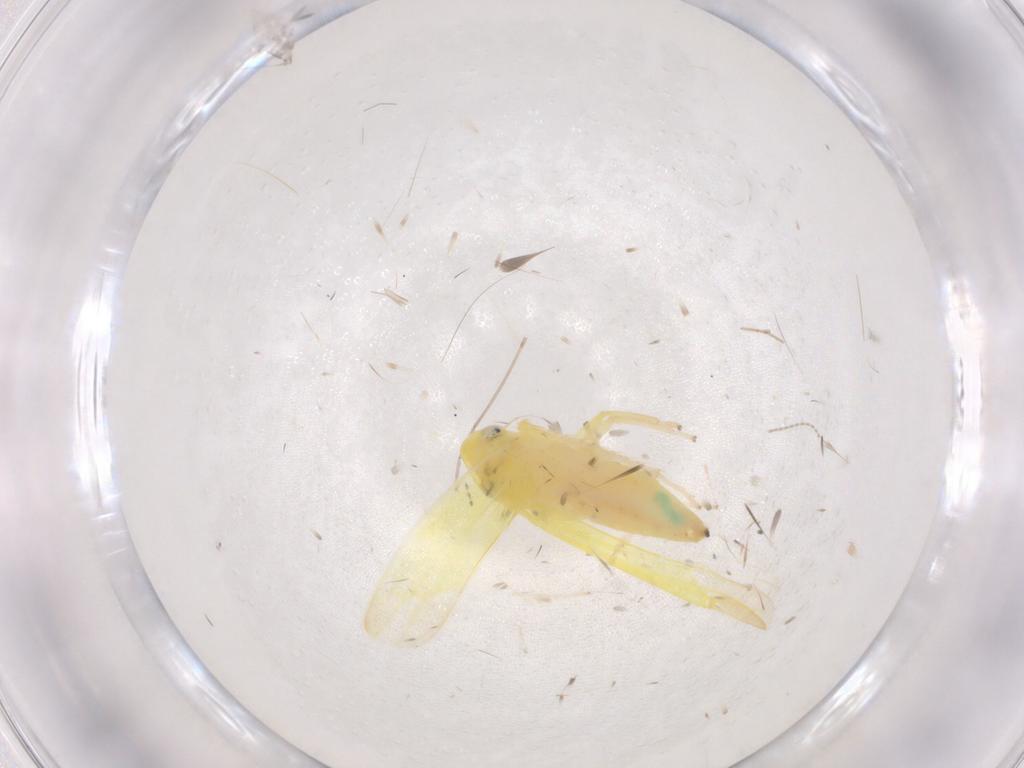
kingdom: Animalia
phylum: Arthropoda
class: Insecta
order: Hemiptera
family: Cicadellidae
